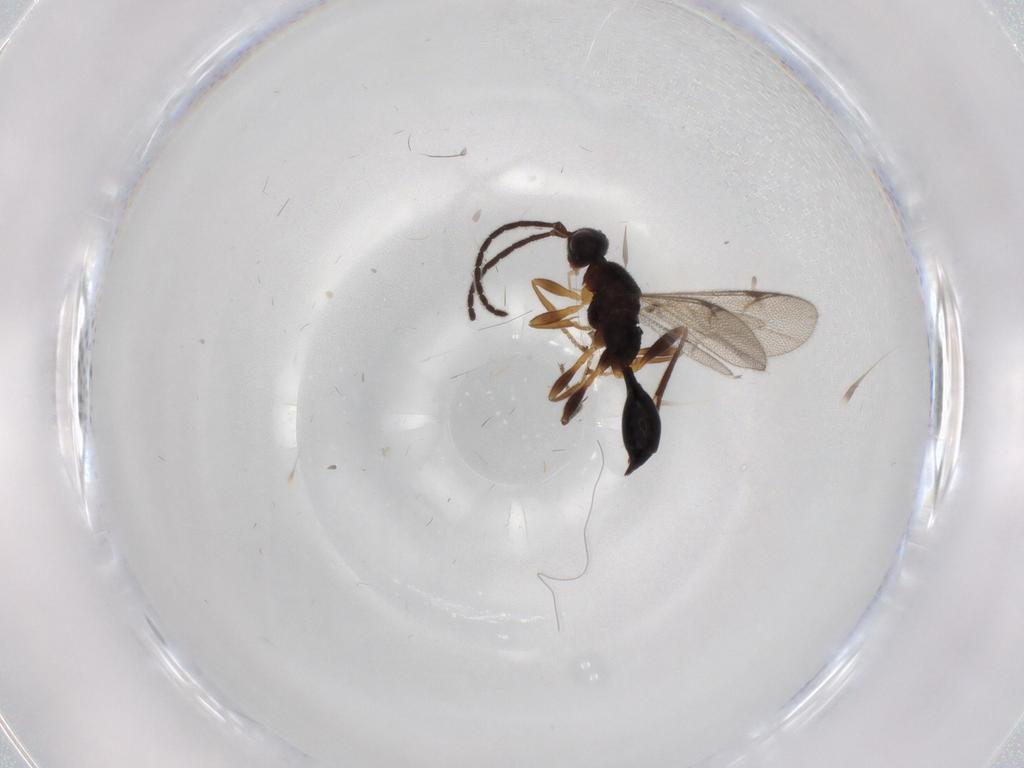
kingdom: Animalia
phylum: Arthropoda
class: Insecta
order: Hymenoptera
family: Proctotrupidae
